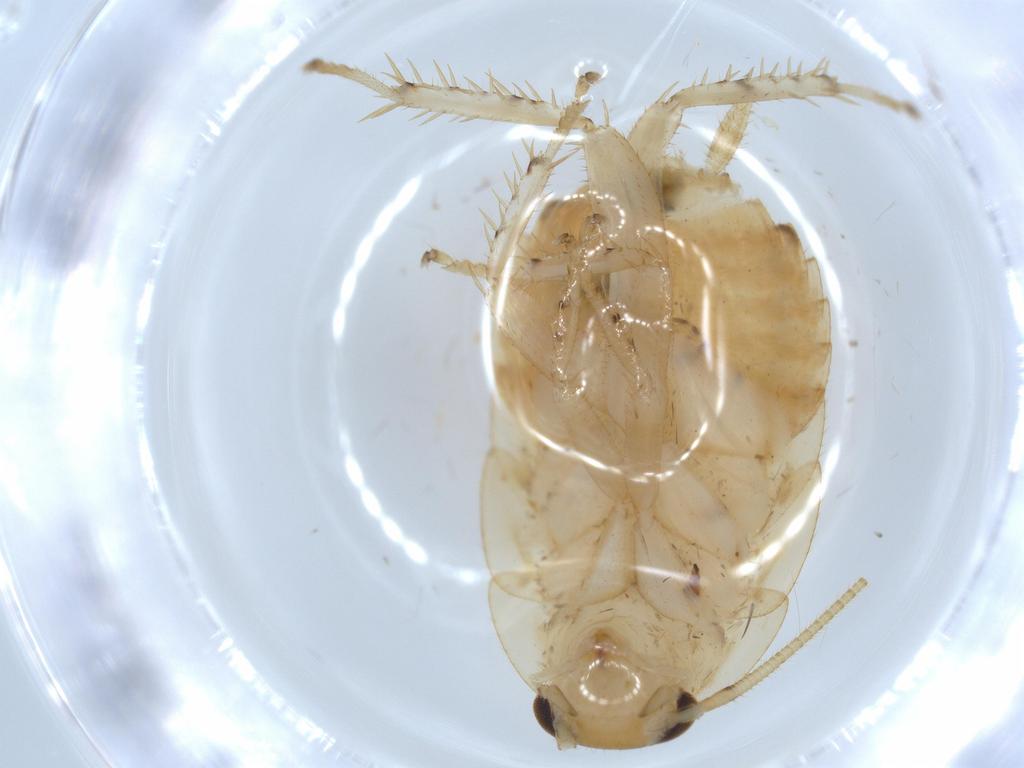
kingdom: Animalia
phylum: Arthropoda
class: Insecta
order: Blattodea
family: Ectobiidae
